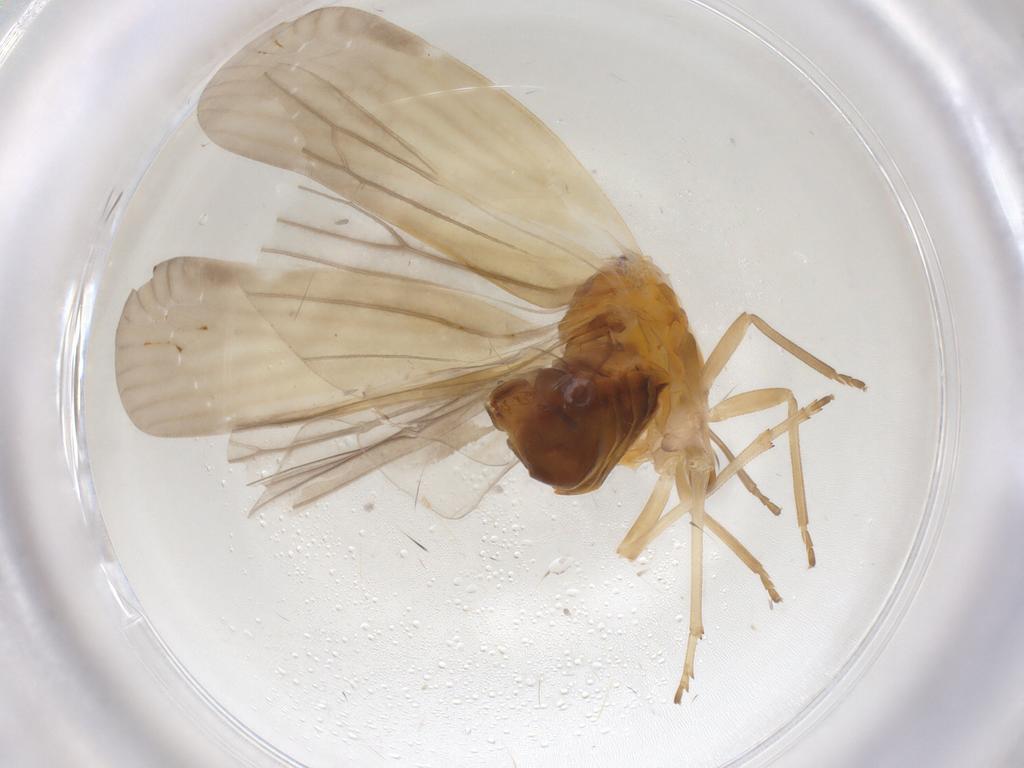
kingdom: Animalia
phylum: Arthropoda
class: Insecta
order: Hemiptera
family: Derbidae
